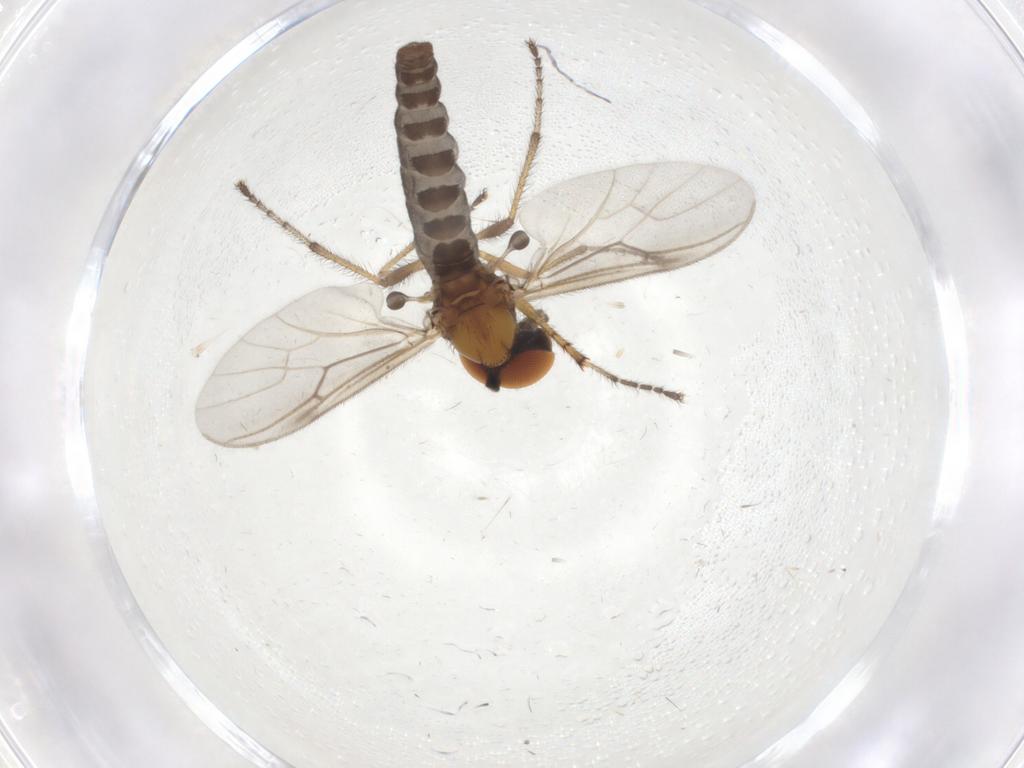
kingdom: Animalia
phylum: Arthropoda
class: Insecta
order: Diptera
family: Bibionidae
